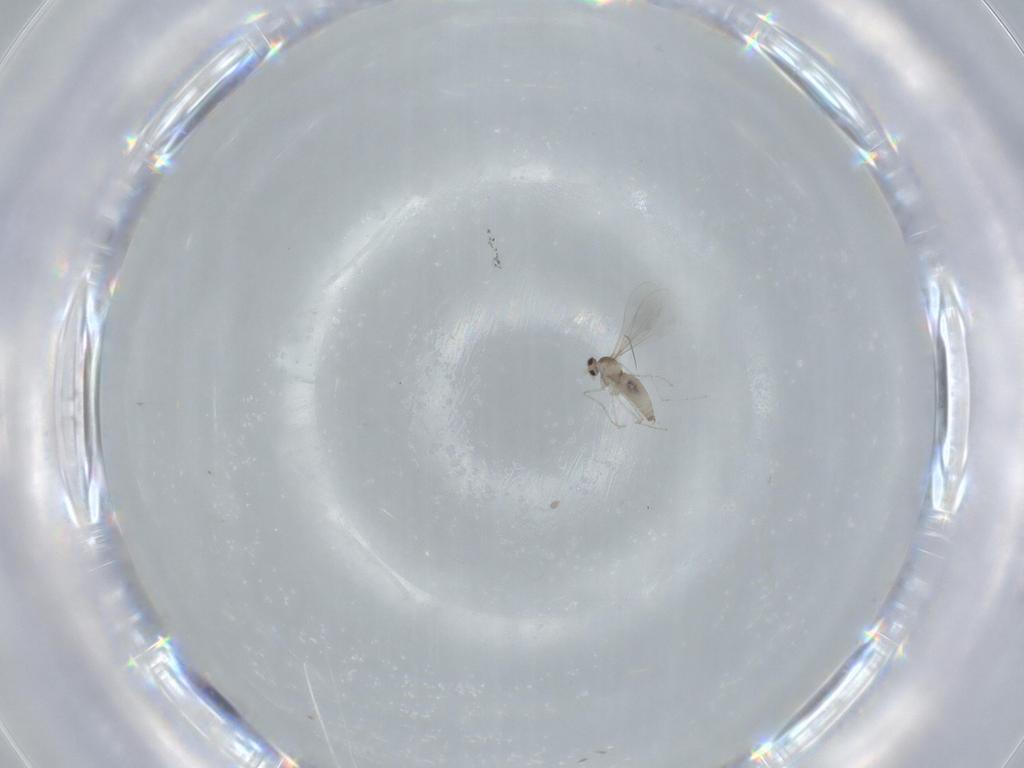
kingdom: Animalia
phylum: Arthropoda
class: Insecta
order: Diptera
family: Cecidomyiidae
